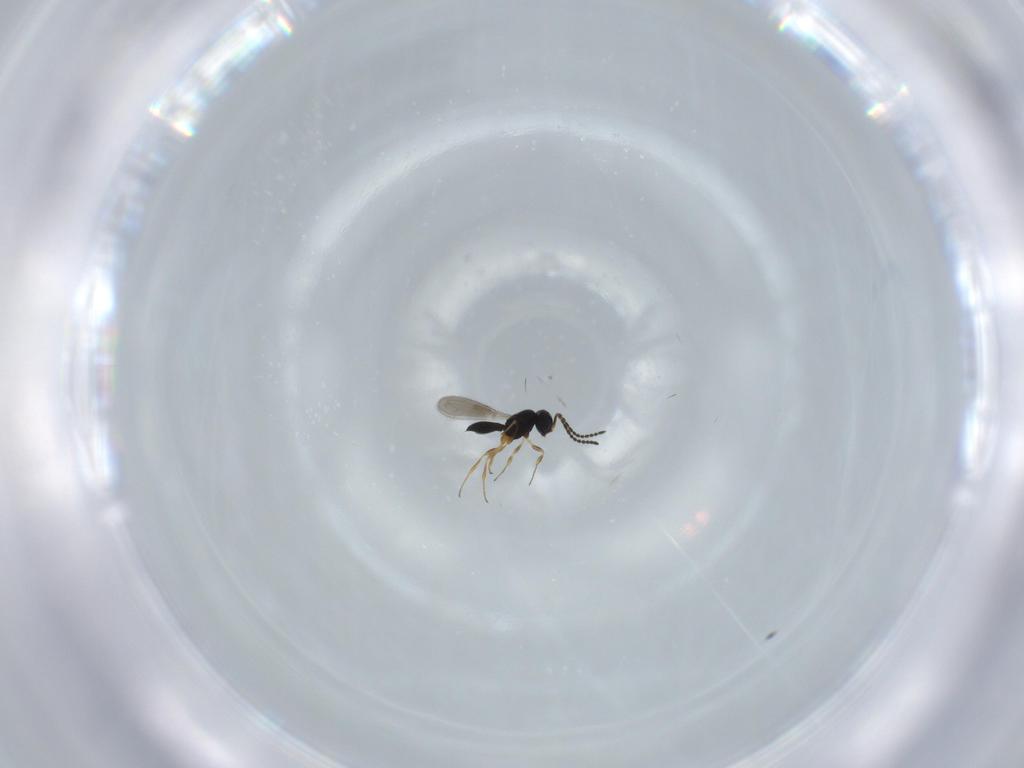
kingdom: Animalia
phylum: Arthropoda
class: Insecta
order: Hymenoptera
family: Scelionidae
